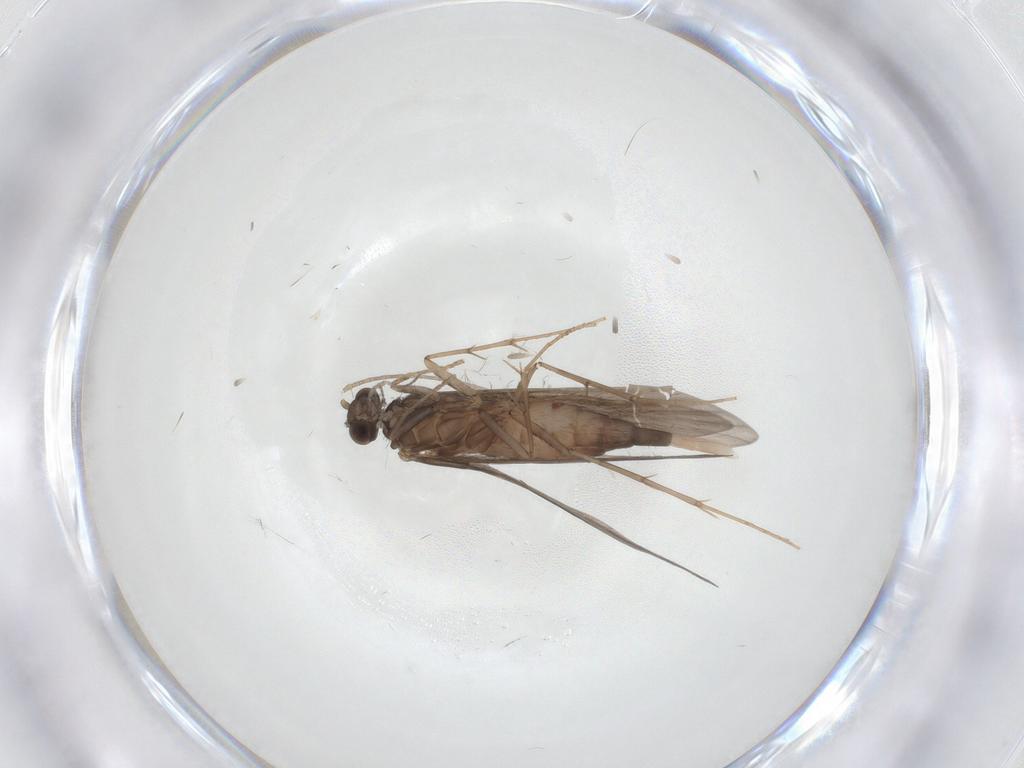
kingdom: Animalia
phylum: Arthropoda
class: Insecta
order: Trichoptera
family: Xiphocentronidae
